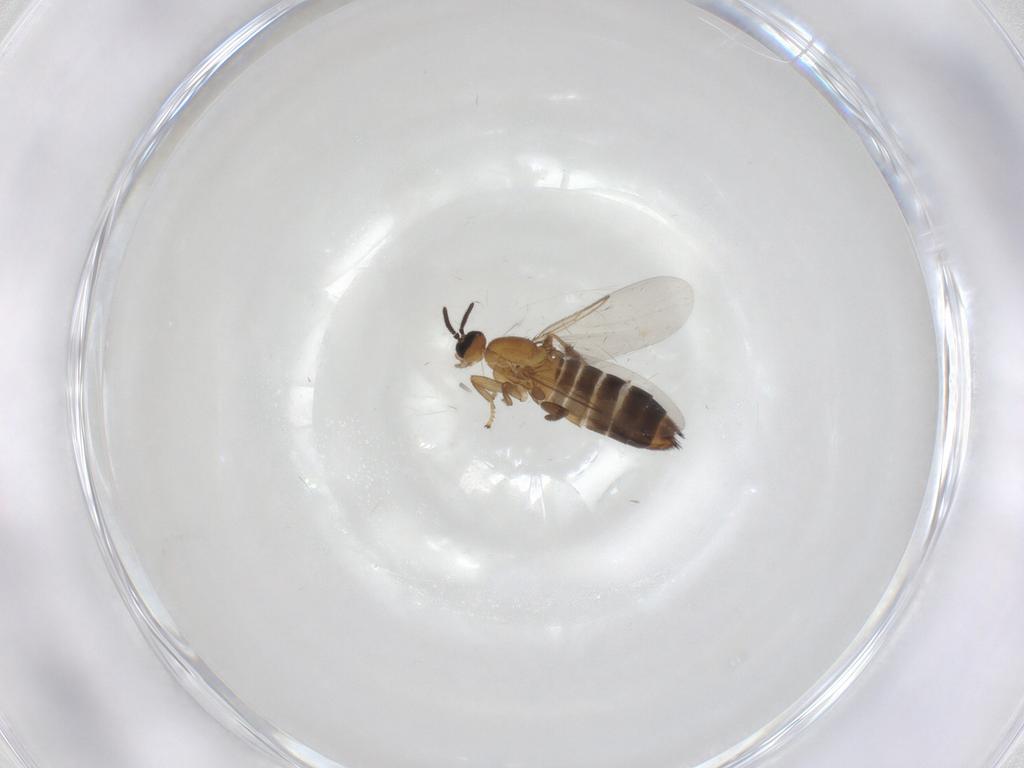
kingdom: Animalia
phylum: Arthropoda
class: Insecta
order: Diptera
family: Scatopsidae
